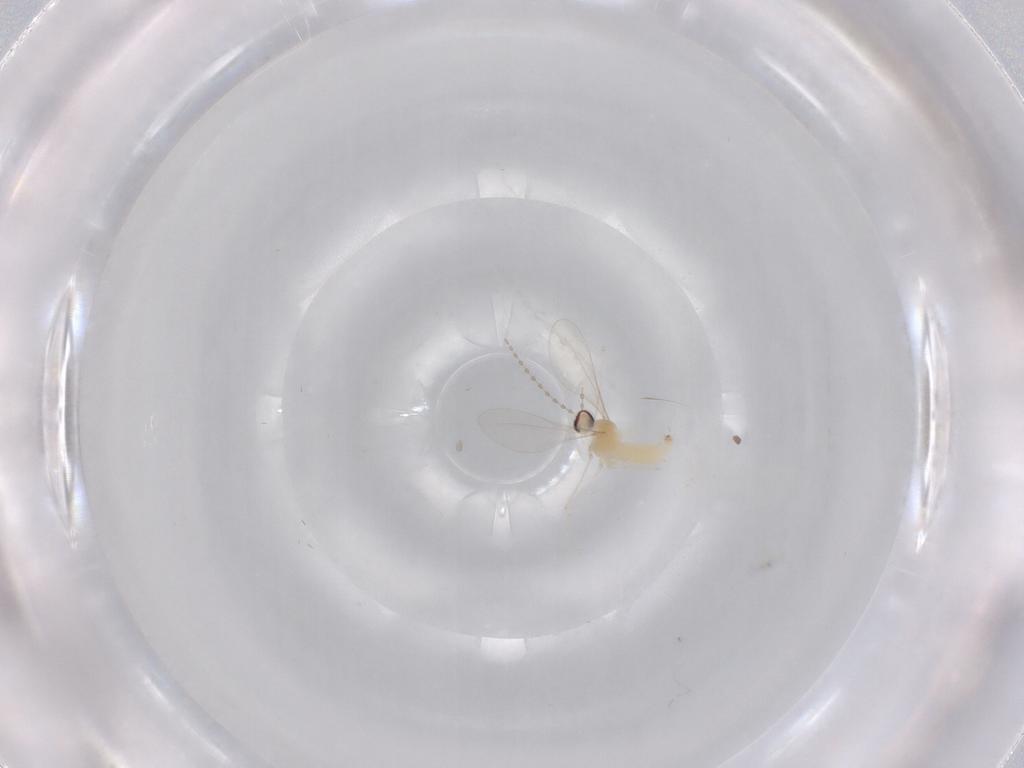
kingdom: Animalia
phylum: Arthropoda
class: Insecta
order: Diptera
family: Cecidomyiidae
